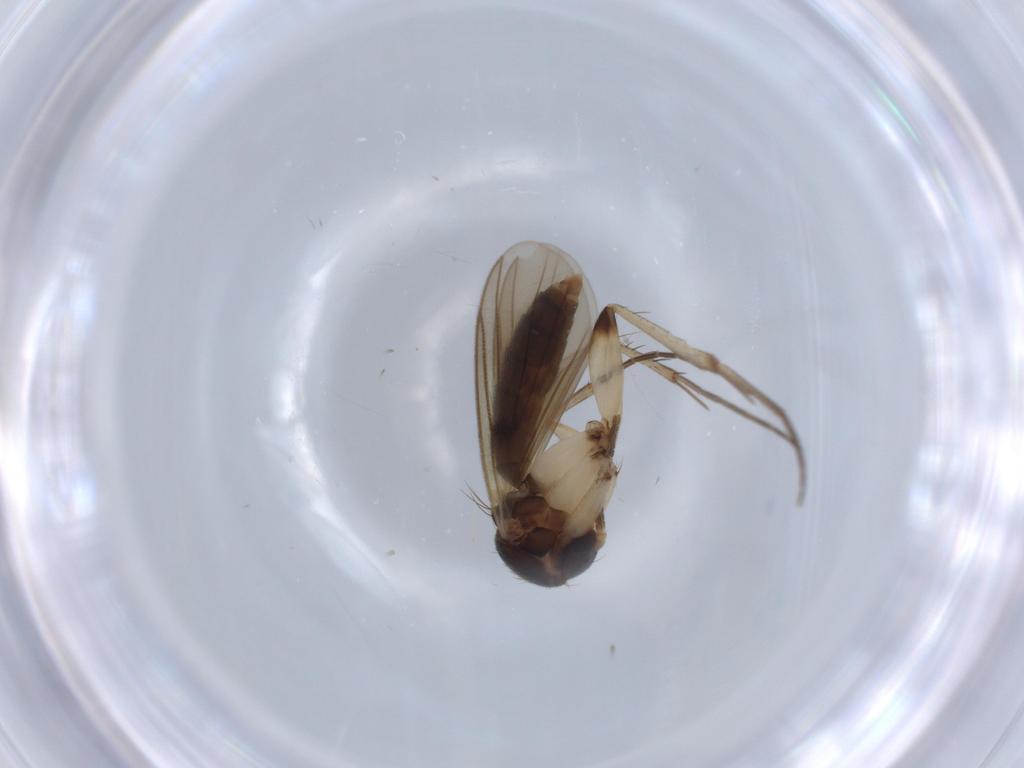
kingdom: Animalia
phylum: Arthropoda
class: Insecta
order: Diptera
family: Mycetophilidae
